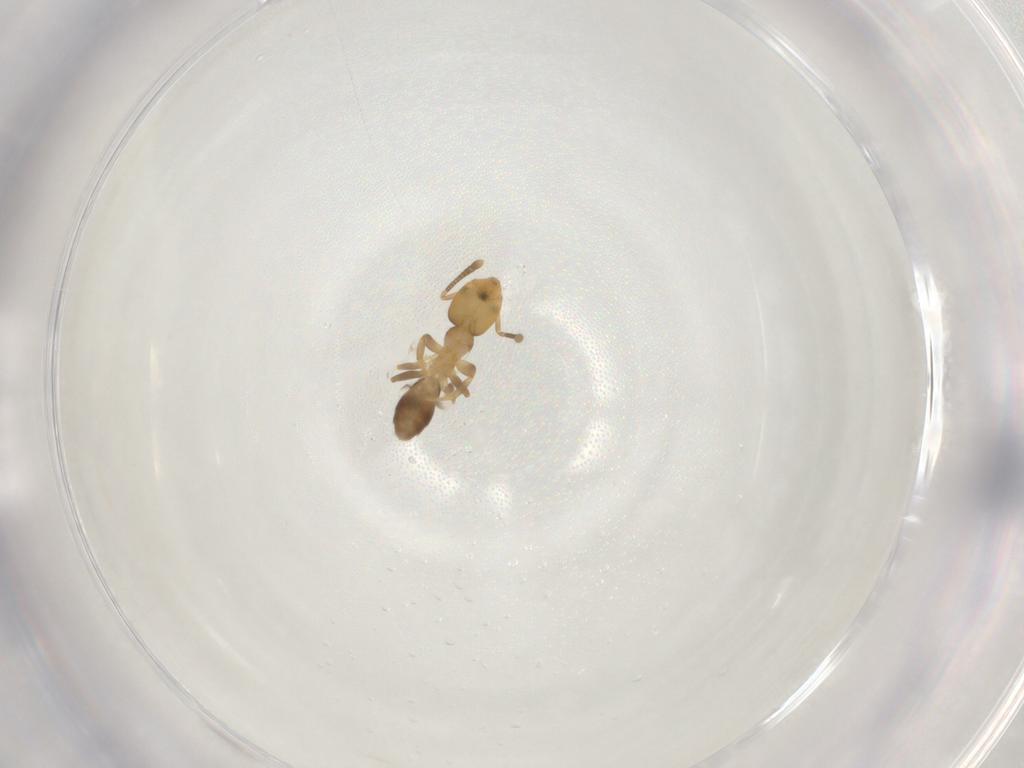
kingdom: Animalia
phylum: Arthropoda
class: Insecta
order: Hymenoptera
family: Formicidae
